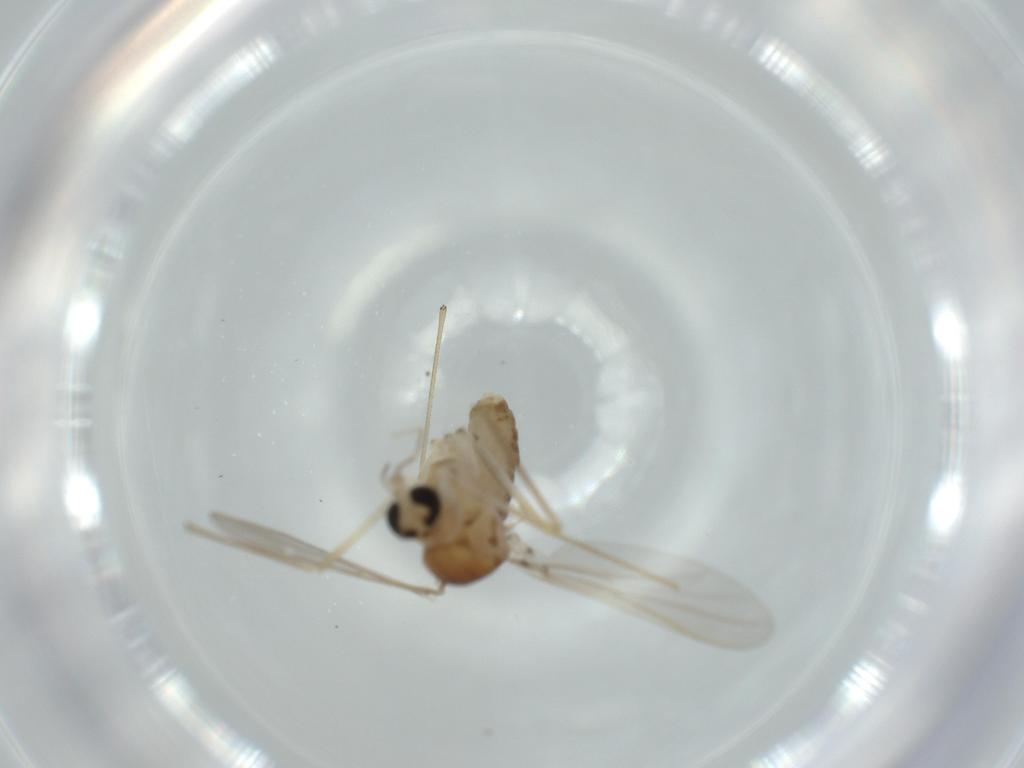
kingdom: Animalia
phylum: Arthropoda
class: Insecta
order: Diptera
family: Chironomidae
